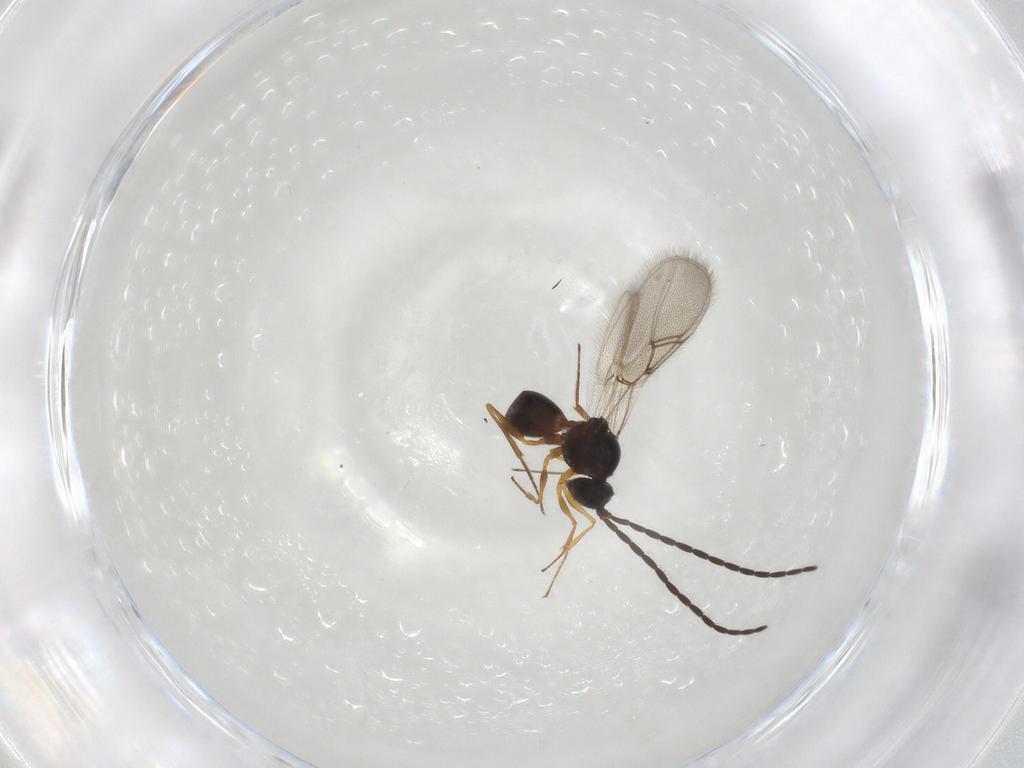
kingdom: Animalia
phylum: Arthropoda
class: Insecta
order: Hymenoptera
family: Figitidae
